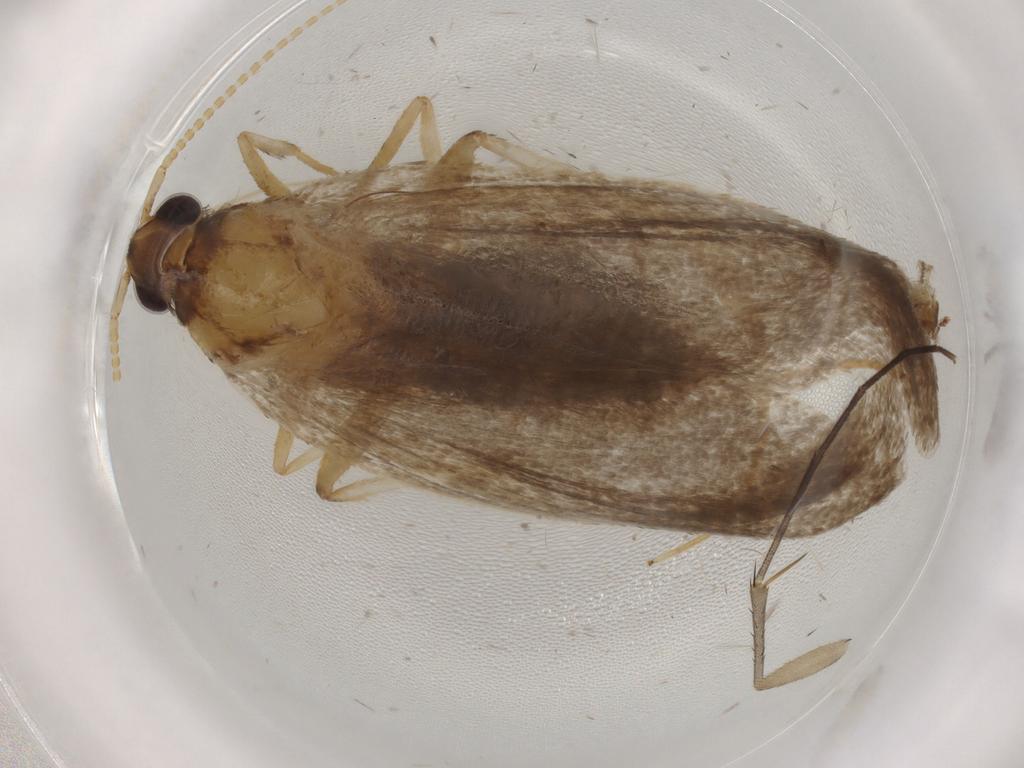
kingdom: Animalia
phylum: Arthropoda
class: Insecta
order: Lepidoptera
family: Lecithoceridae
